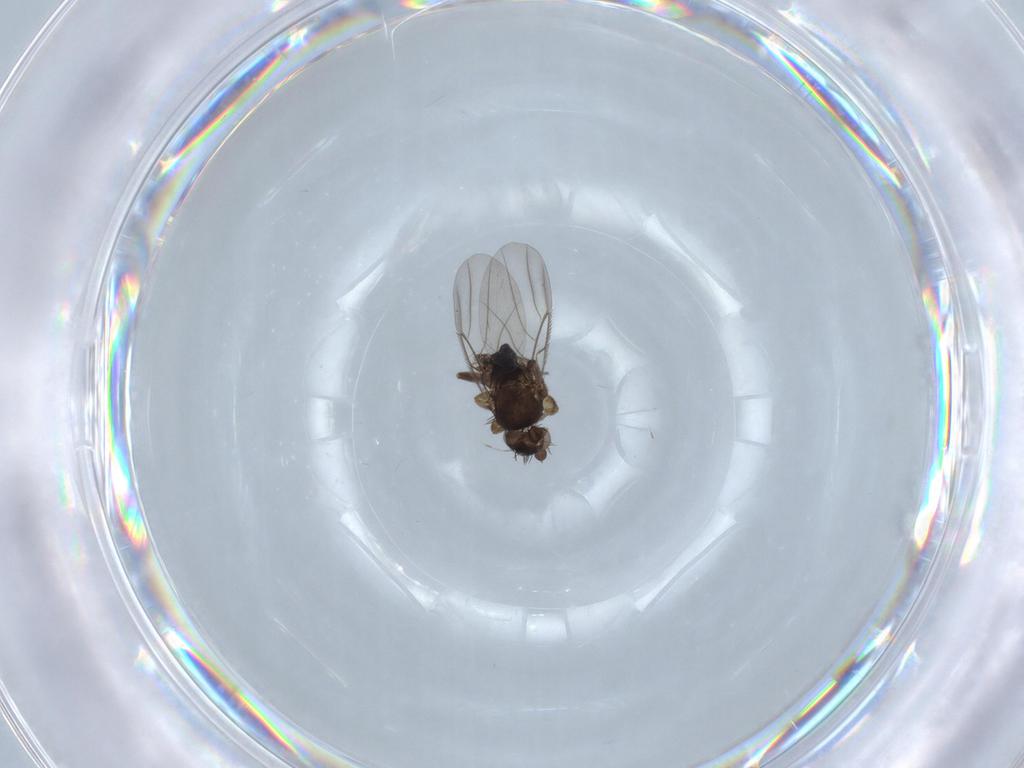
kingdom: Animalia
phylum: Arthropoda
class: Insecta
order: Diptera
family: Phoridae
